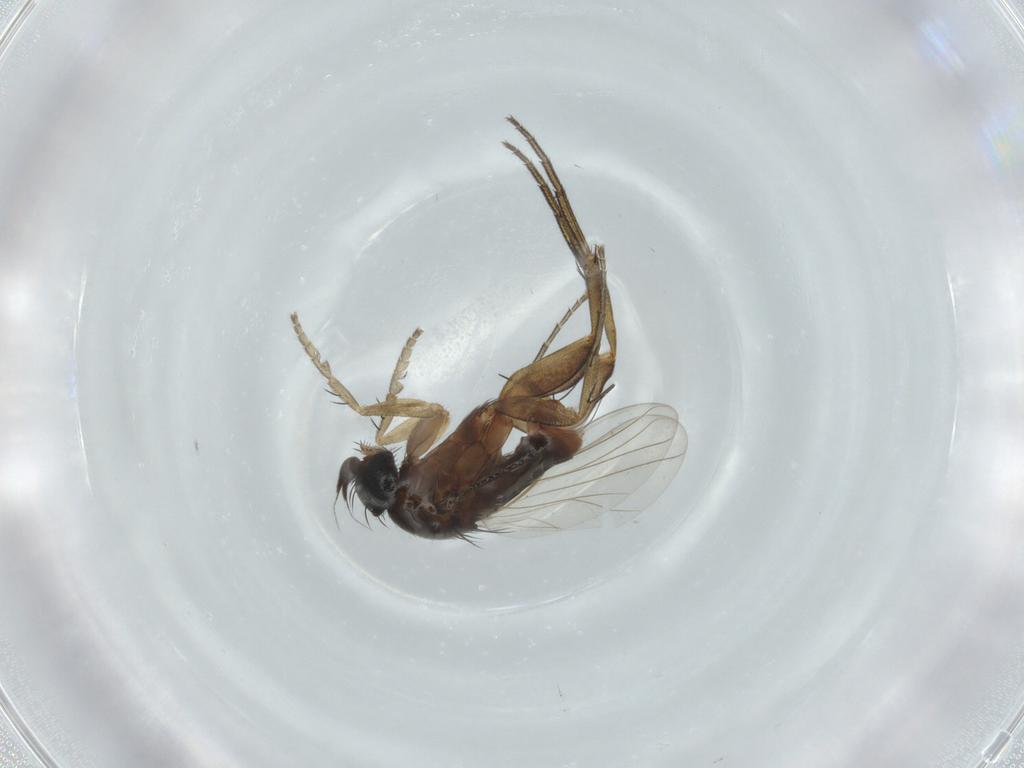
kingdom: Animalia
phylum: Arthropoda
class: Insecta
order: Diptera
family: Phoridae
